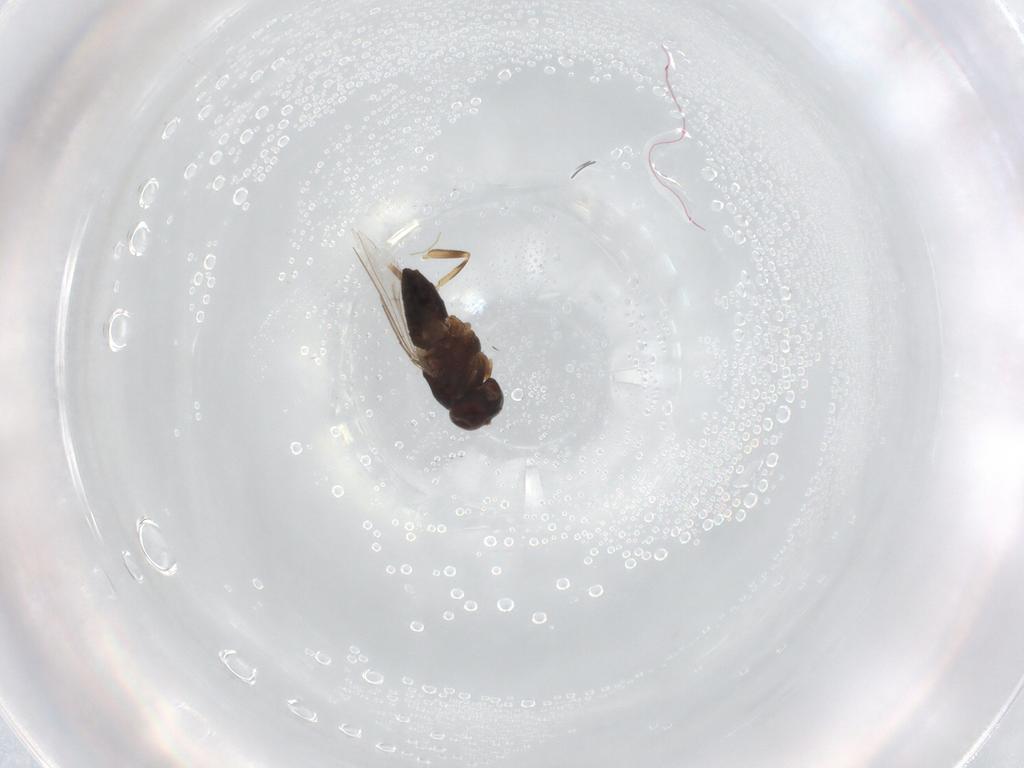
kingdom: Animalia
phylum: Arthropoda
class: Insecta
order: Diptera
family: Ephydridae
